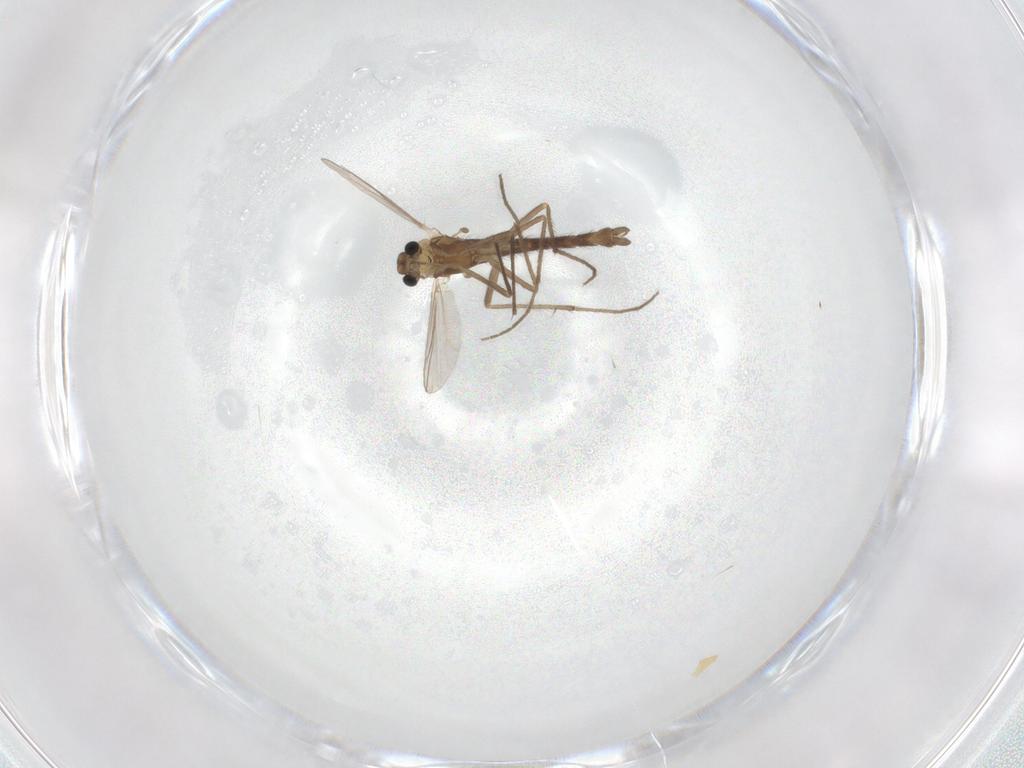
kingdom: Animalia
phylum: Arthropoda
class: Insecta
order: Diptera
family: Chironomidae
